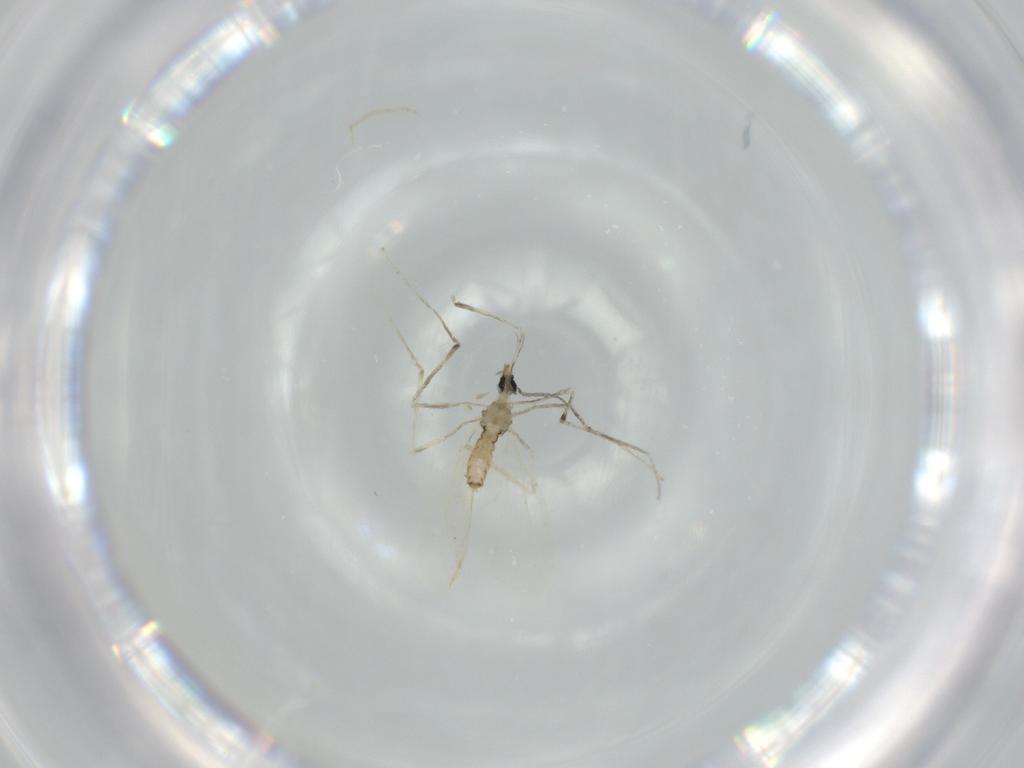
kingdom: Animalia
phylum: Arthropoda
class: Insecta
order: Diptera
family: Cecidomyiidae
